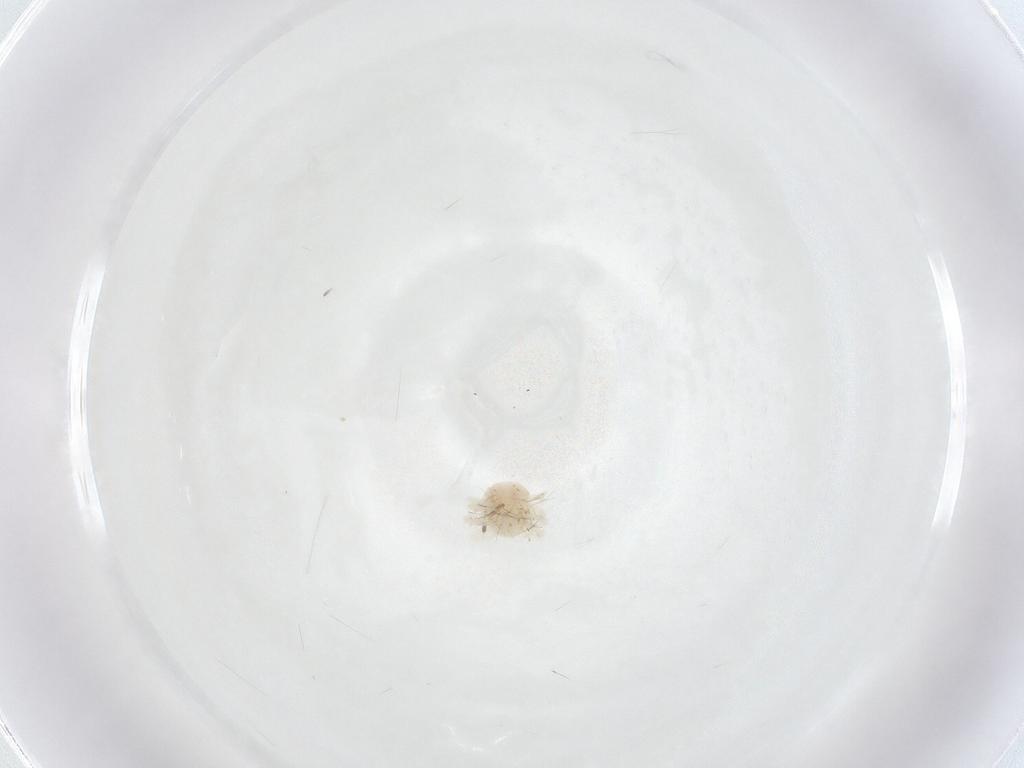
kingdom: Animalia
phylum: Arthropoda
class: Arachnida
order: Trombidiformes
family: Anystidae
